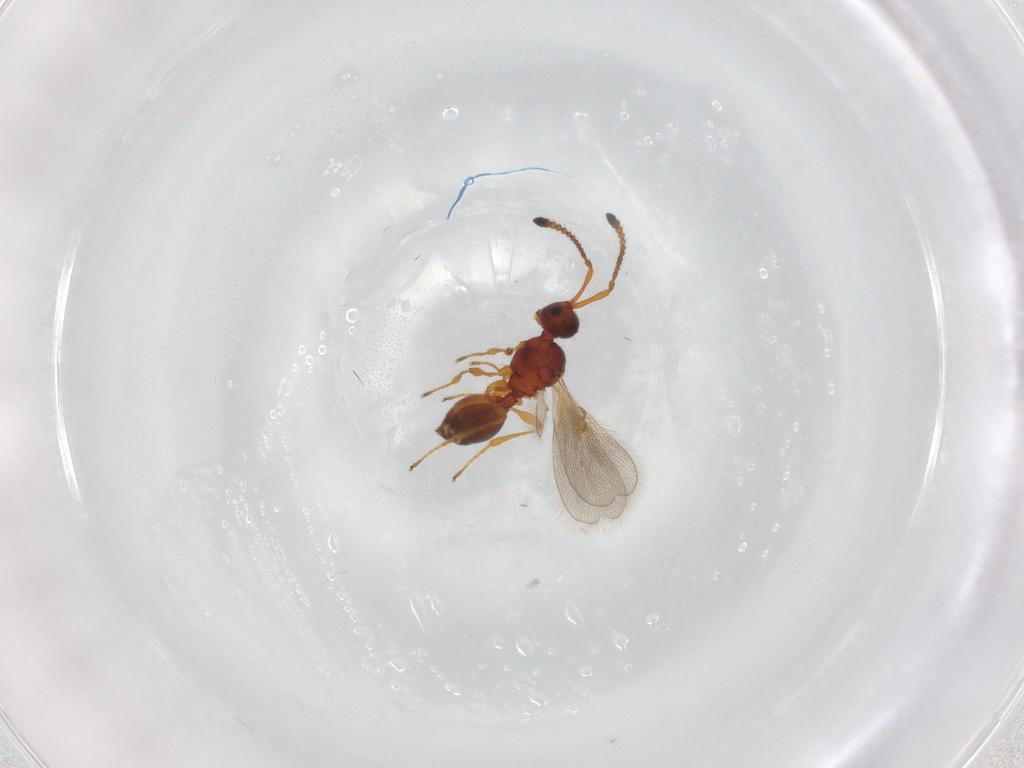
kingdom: Animalia
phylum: Arthropoda
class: Insecta
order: Hymenoptera
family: Diapriidae
